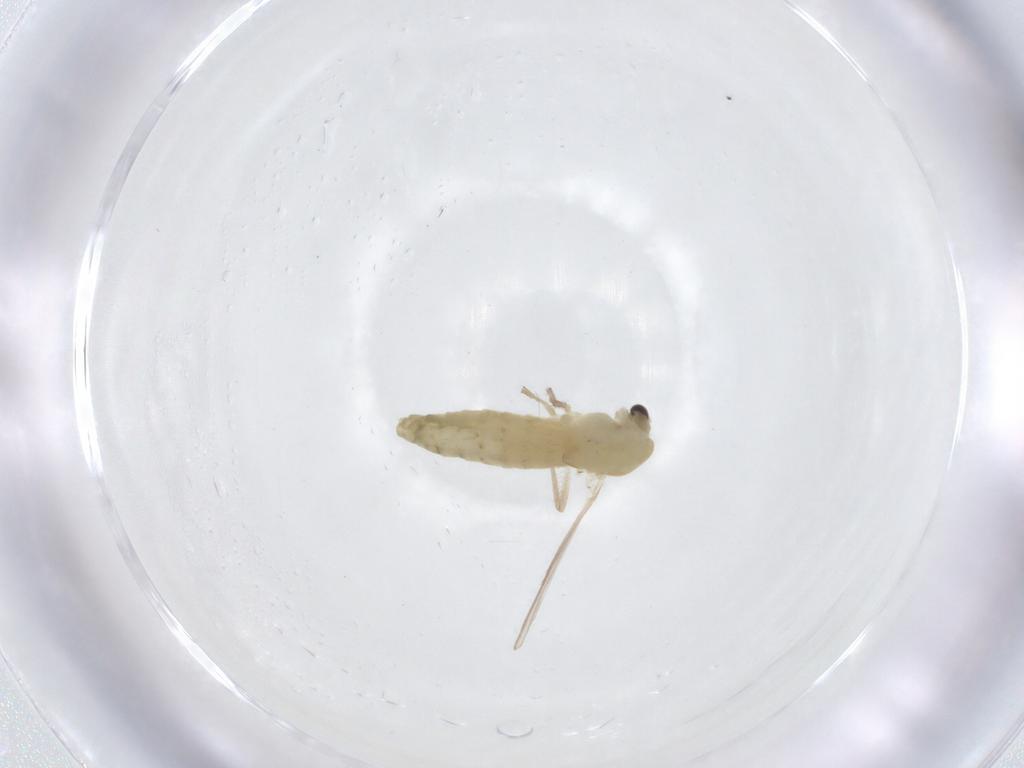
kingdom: Animalia
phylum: Arthropoda
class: Insecta
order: Diptera
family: Chironomidae
